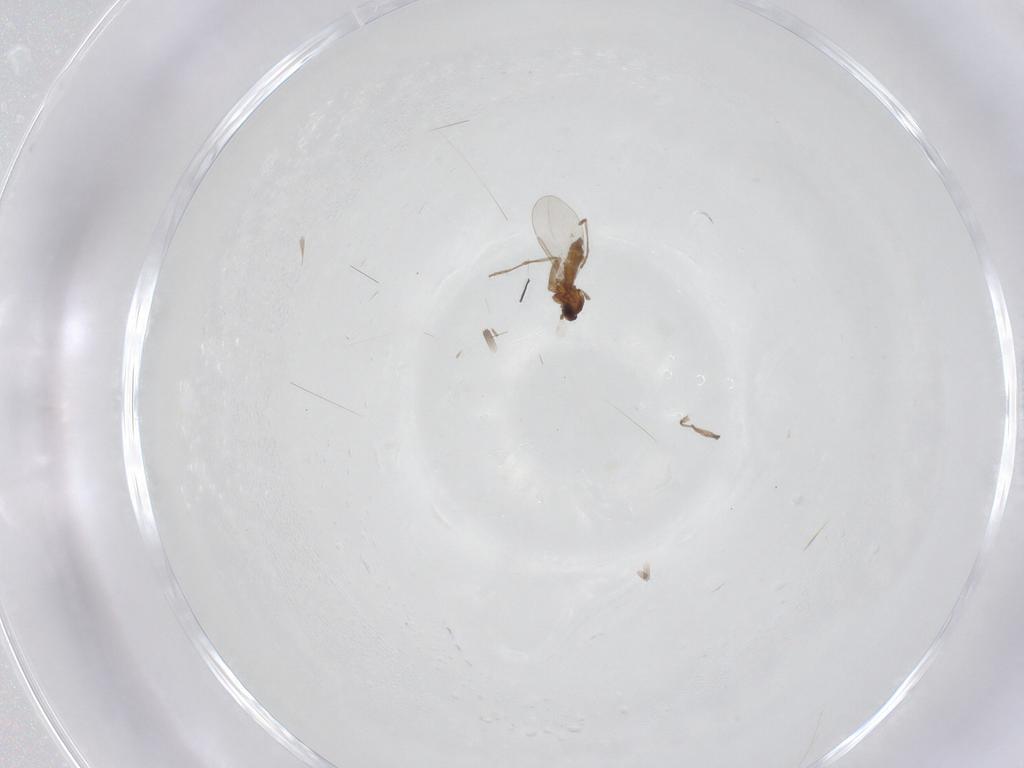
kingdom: Animalia
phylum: Arthropoda
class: Insecta
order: Diptera
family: Cecidomyiidae
